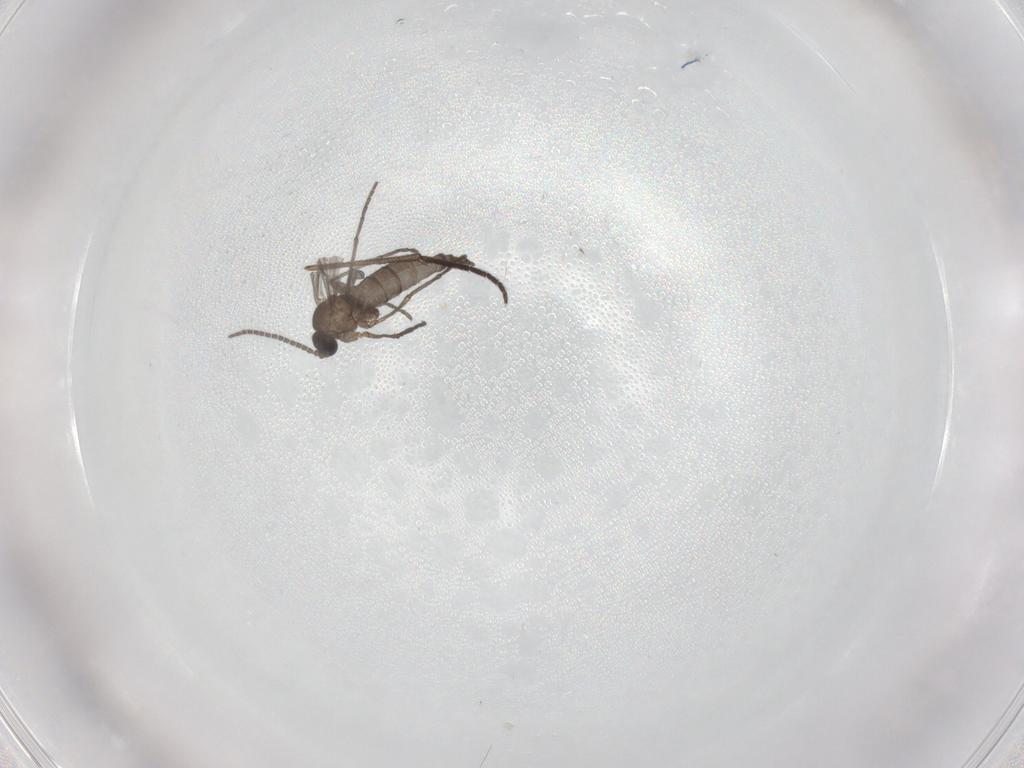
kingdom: Animalia
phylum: Arthropoda
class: Insecta
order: Diptera
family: Sciaridae
